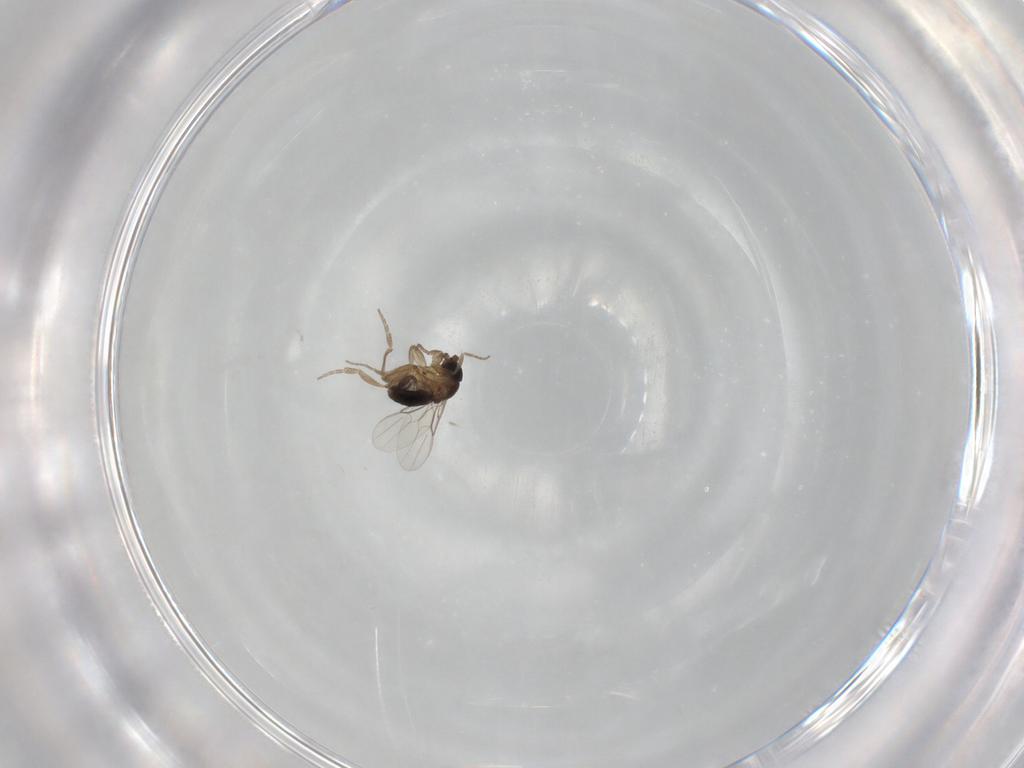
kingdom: Animalia
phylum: Arthropoda
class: Insecta
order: Diptera
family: Phoridae
